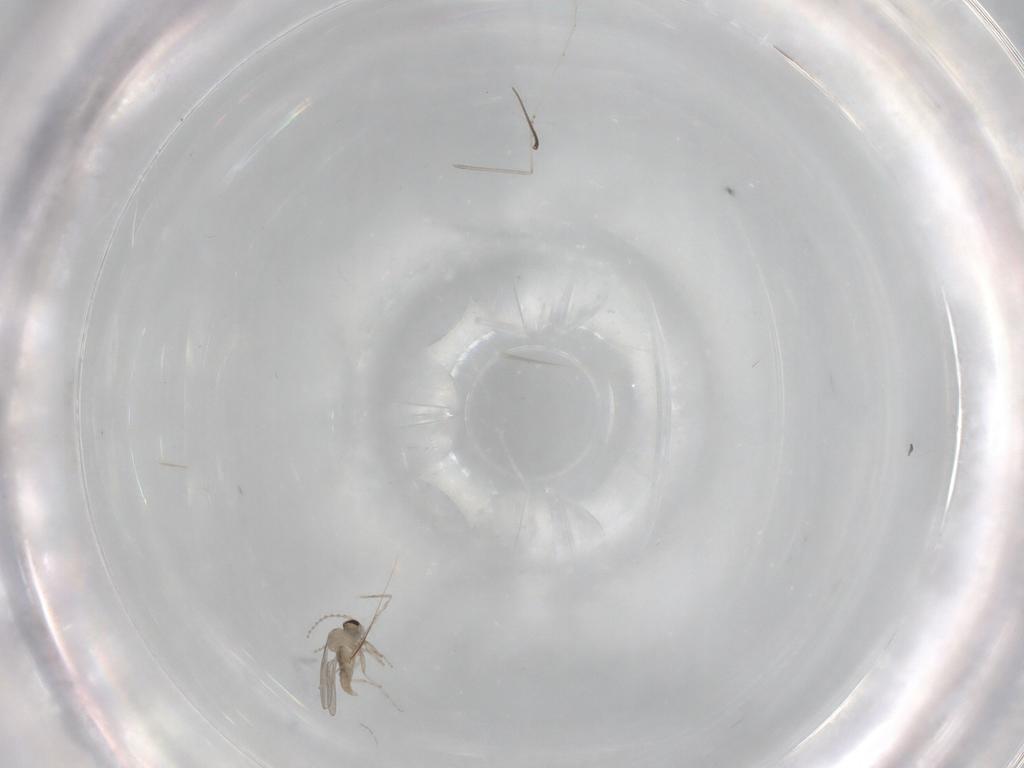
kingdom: Animalia
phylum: Arthropoda
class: Insecta
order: Diptera
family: Cecidomyiidae
